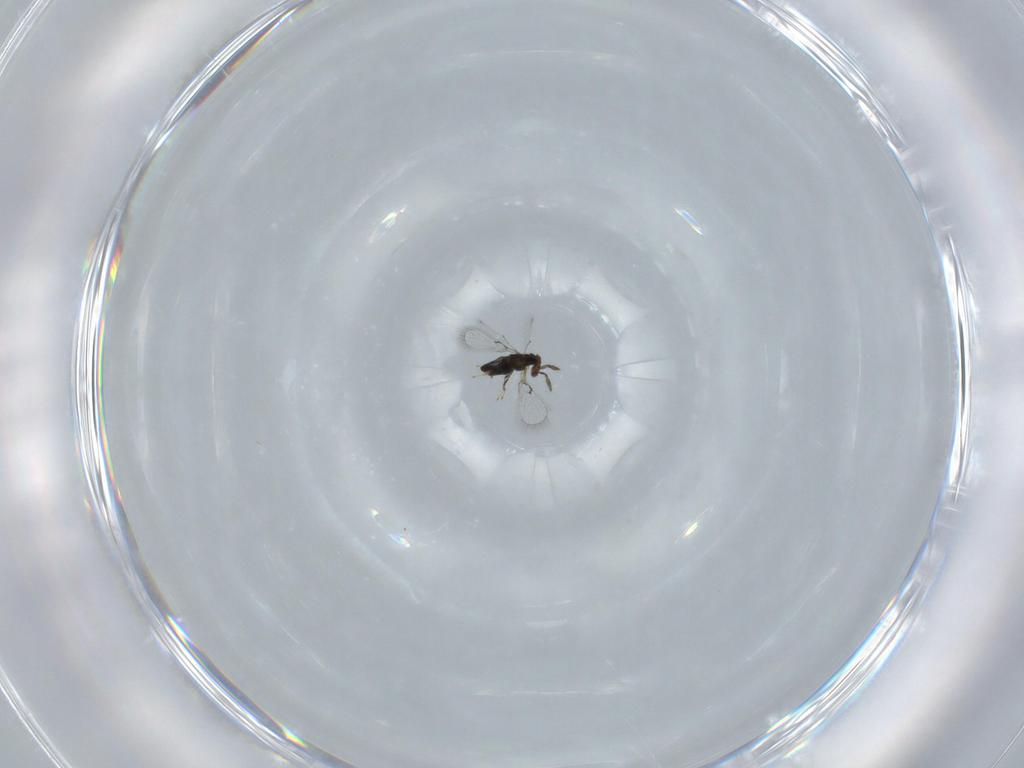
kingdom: Animalia
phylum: Arthropoda
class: Insecta
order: Hymenoptera
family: Trichogrammatidae
